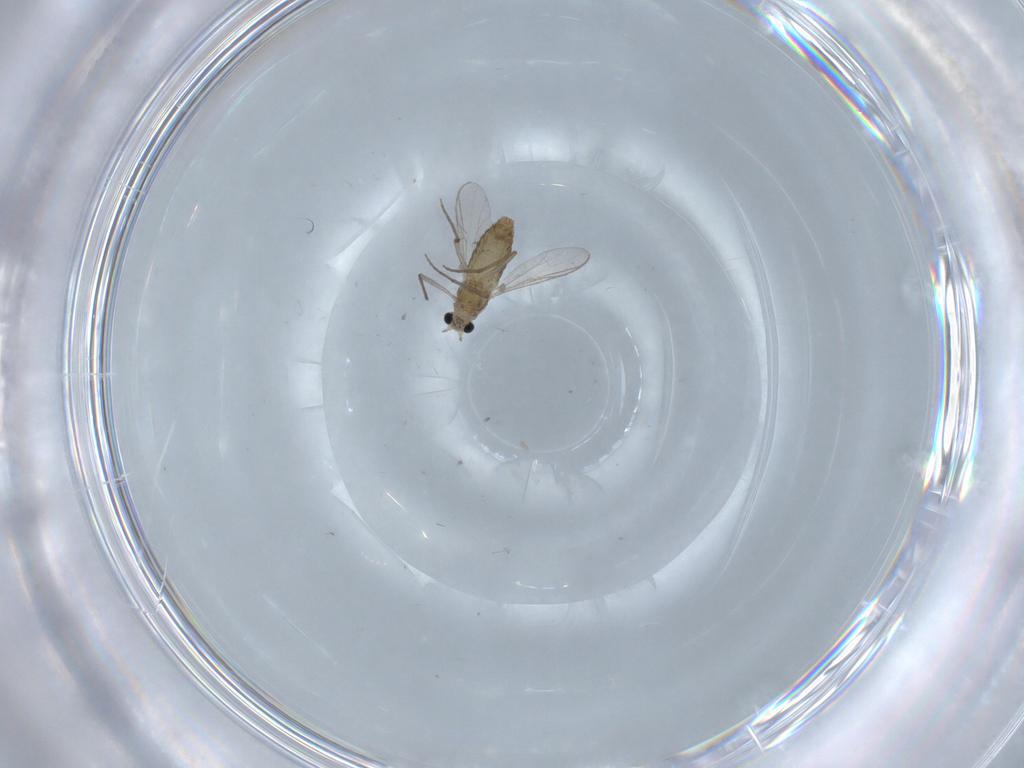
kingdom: Animalia
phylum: Arthropoda
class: Insecta
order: Diptera
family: Chironomidae
